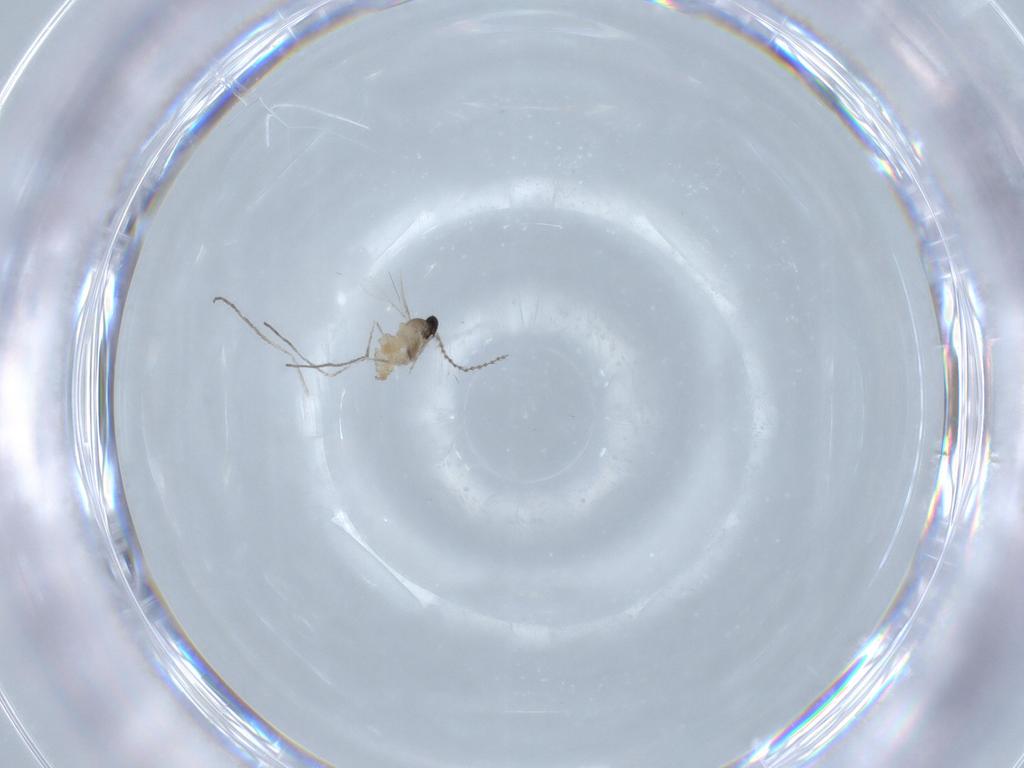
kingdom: Animalia
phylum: Arthropoda
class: Insecta
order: Diptera
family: Cecidomyiidae
